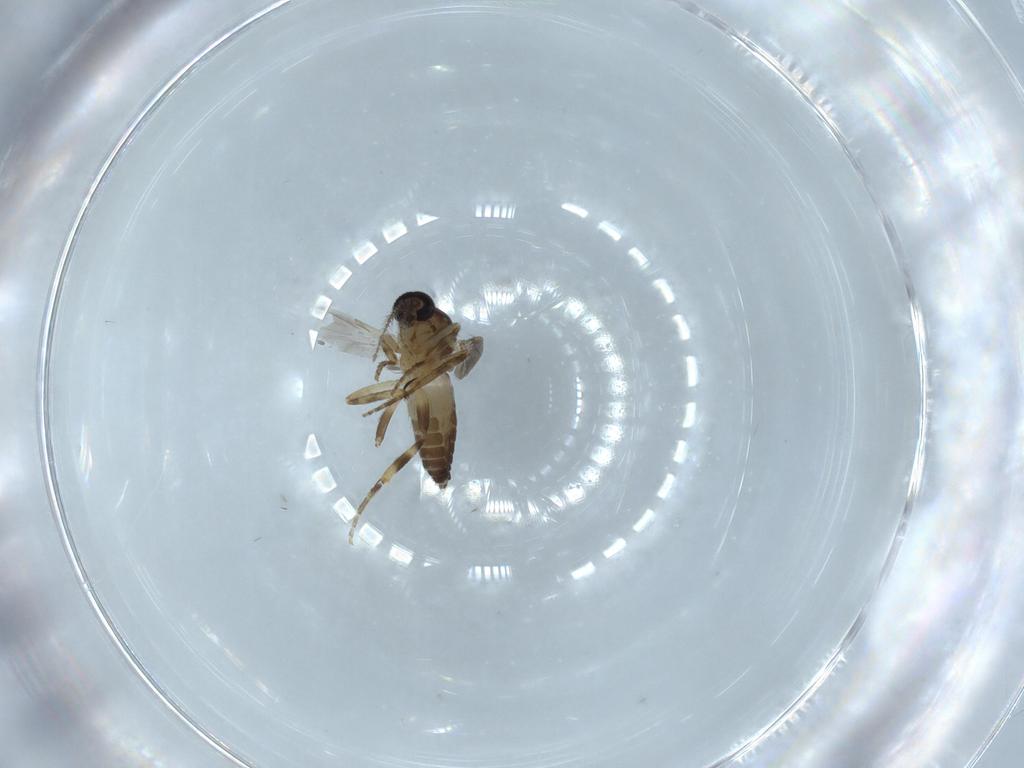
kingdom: Animalia
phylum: Arthropoda
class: Insecta
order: Diptera
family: Ceratopogonidae
